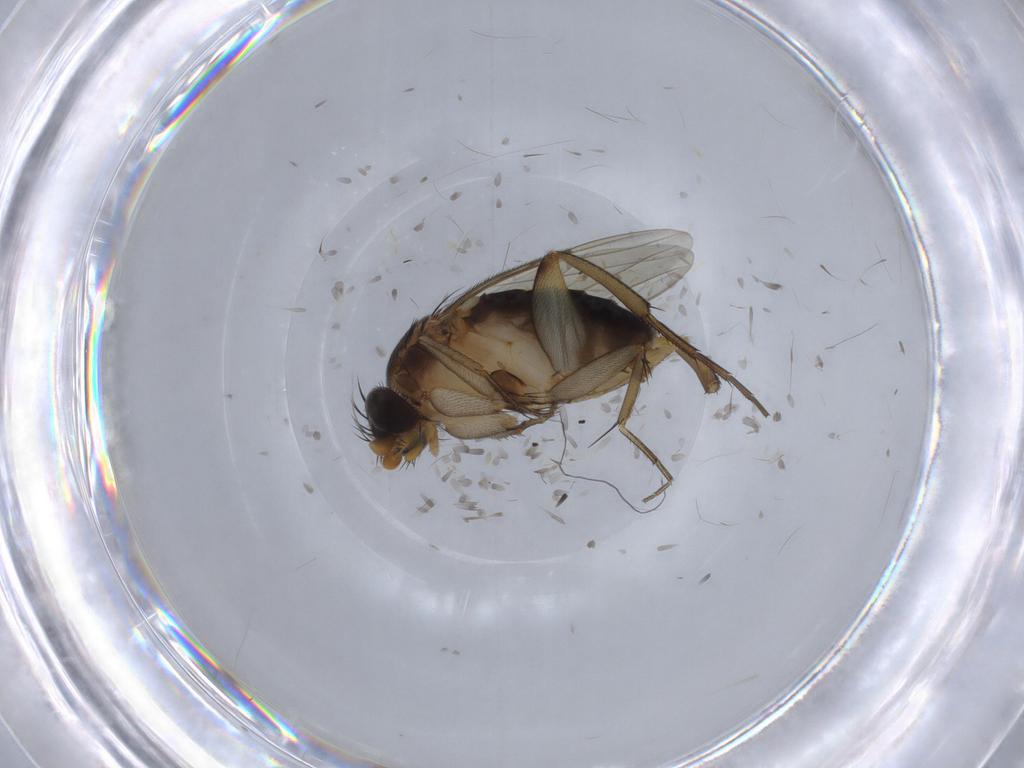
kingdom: Animalia
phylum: Arthropoda
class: Insecta
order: Diptera
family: Phoridae
